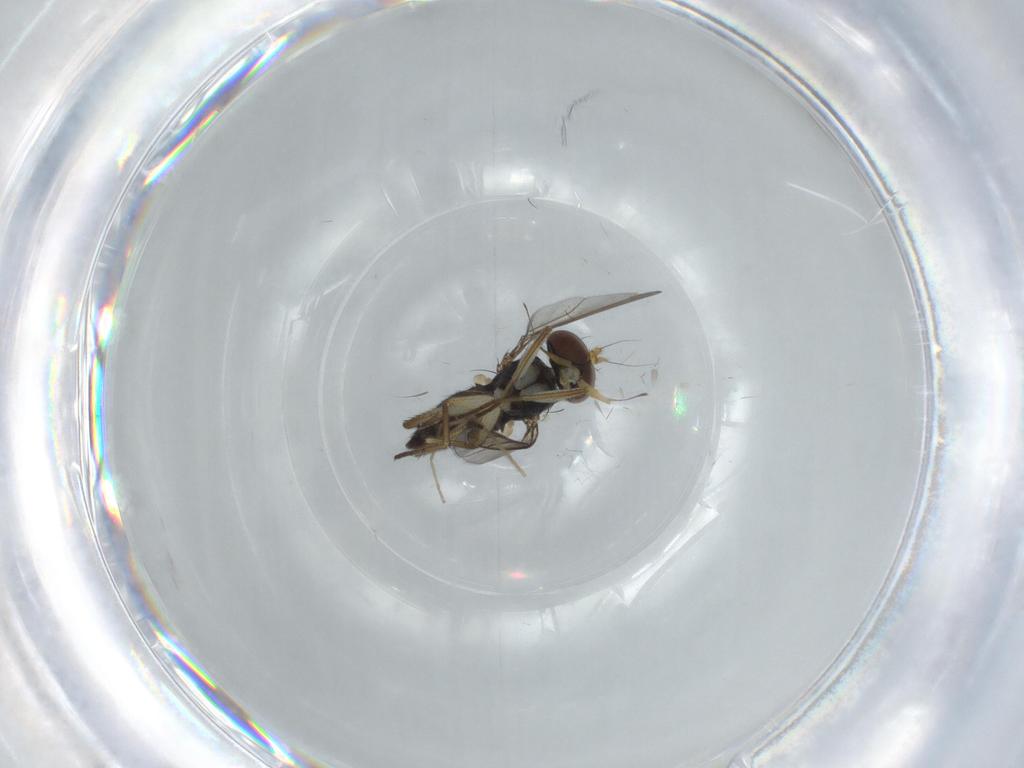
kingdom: Animalia
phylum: Arthropoda
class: Insecta
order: Diptera
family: Dolichopodidae
